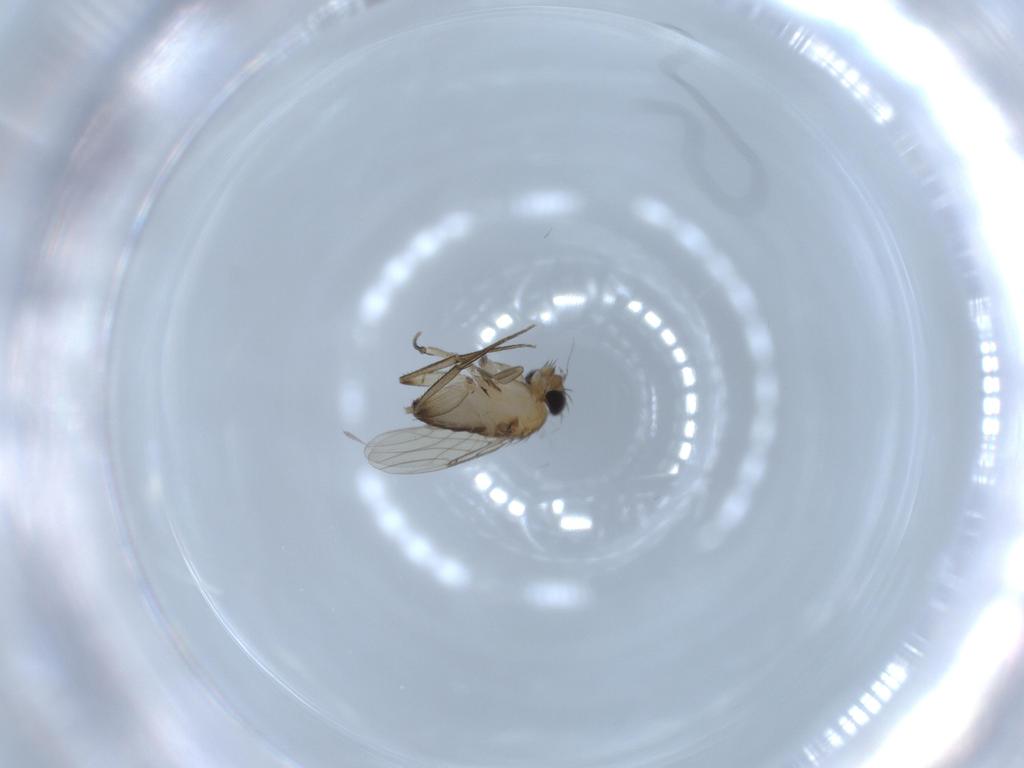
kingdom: Animalia
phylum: Arthropoda
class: Insecta
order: Diptera
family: Phoridae
